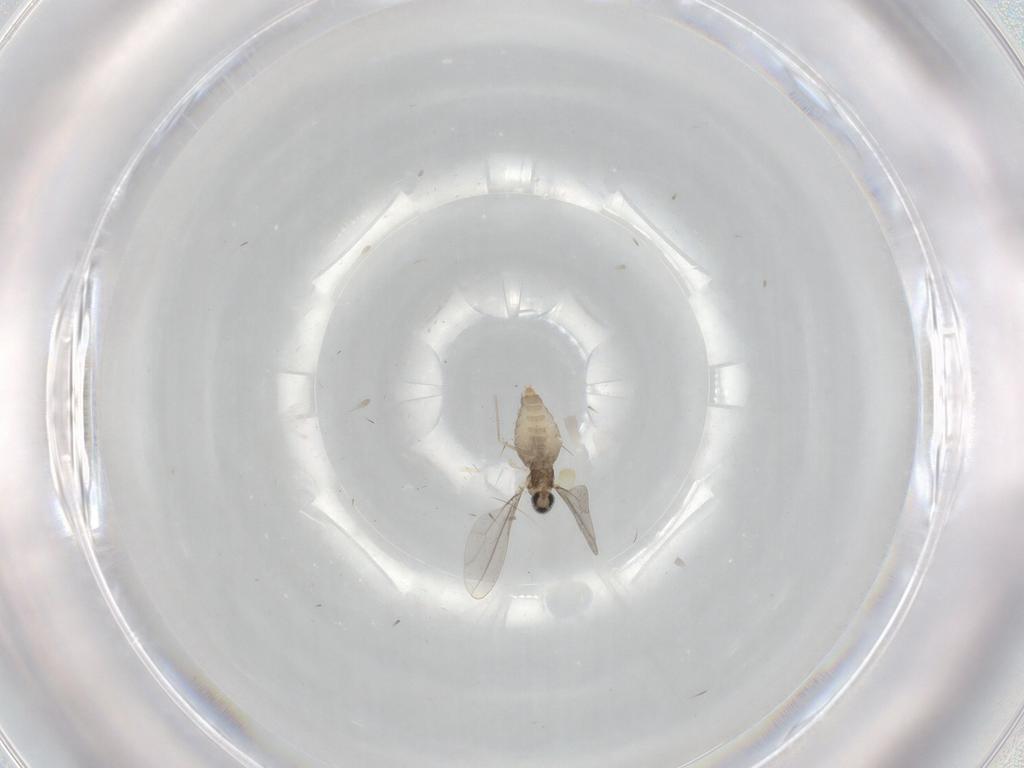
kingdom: Animalia
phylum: Arthropoda
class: Insecta
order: Diptera
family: Cecidomyiidae
